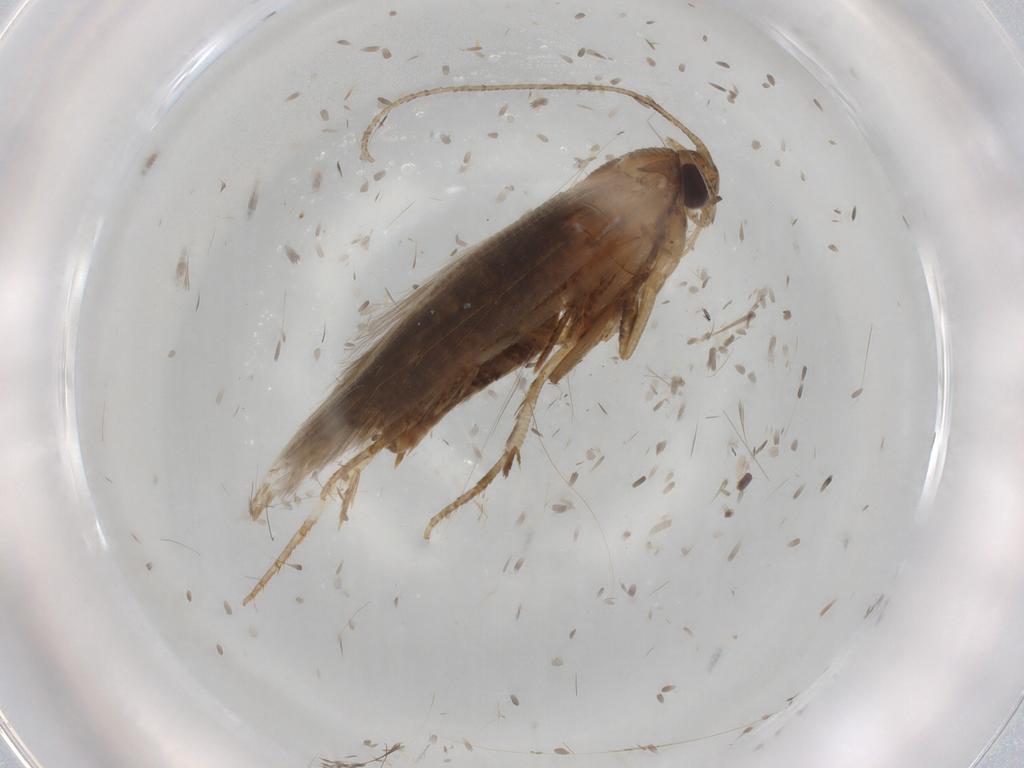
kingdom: Animalia
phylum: Arthropoda
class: Insecta
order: Lepidoptera
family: Cosmopterigidae
